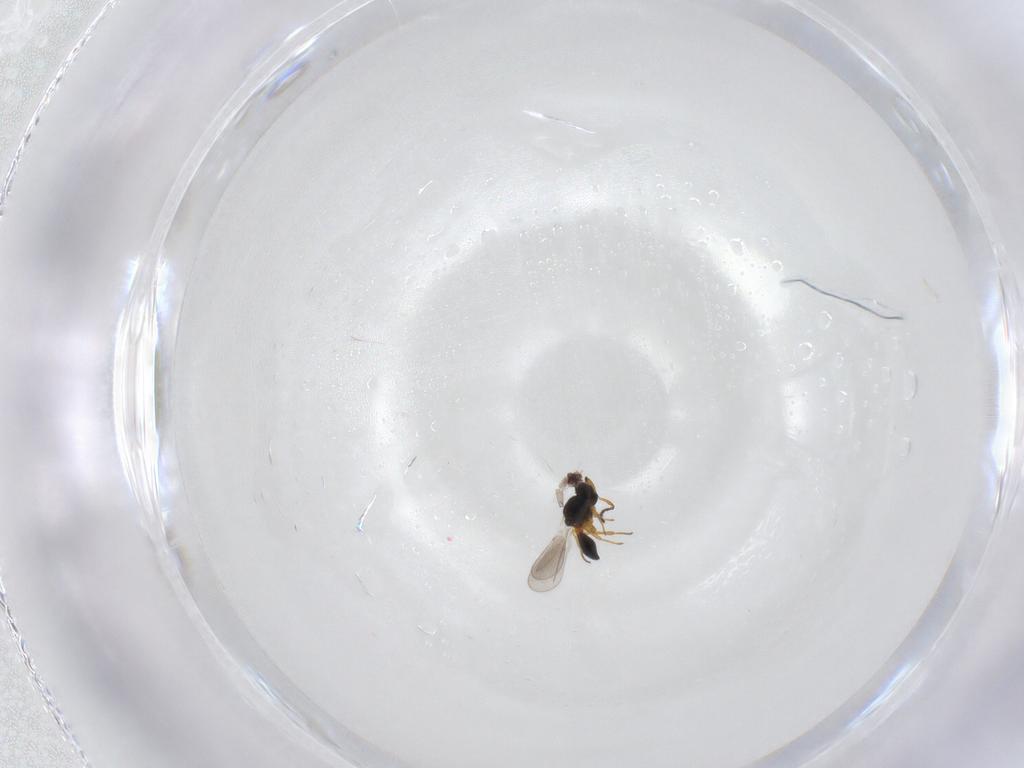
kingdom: Animalia
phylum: Arthropoda
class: Insecta
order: Hymenoptera
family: Platygastridae
